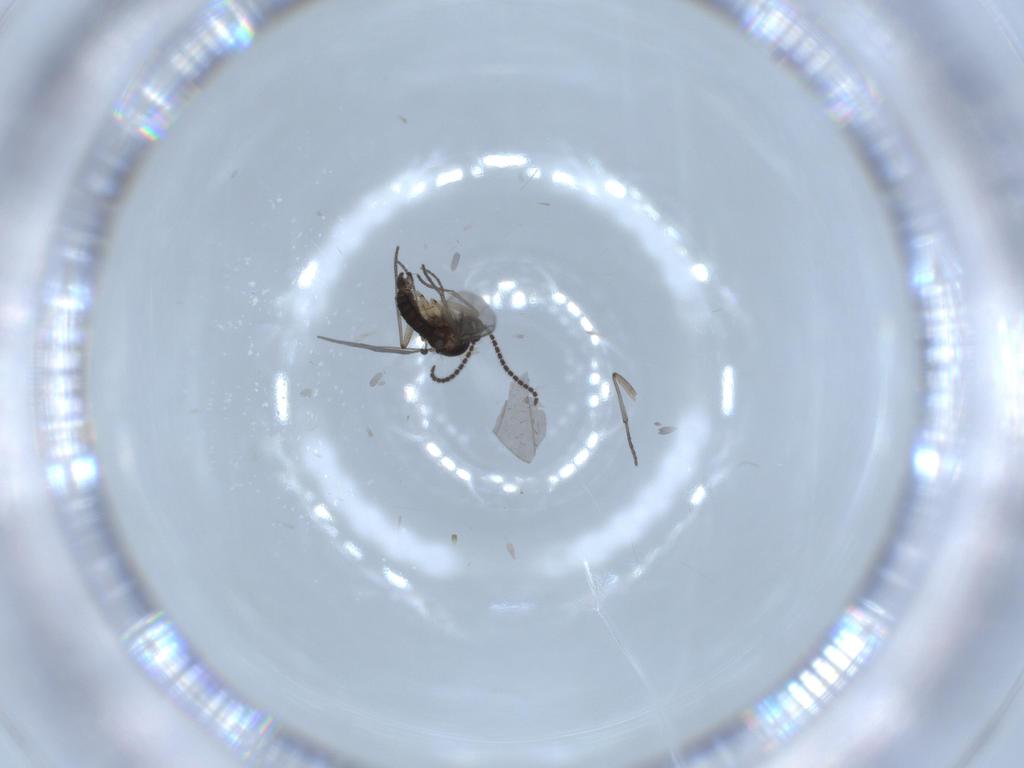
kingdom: Animalia
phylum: Arthropoda
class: Insecta
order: Diptera
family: Sciaridae
